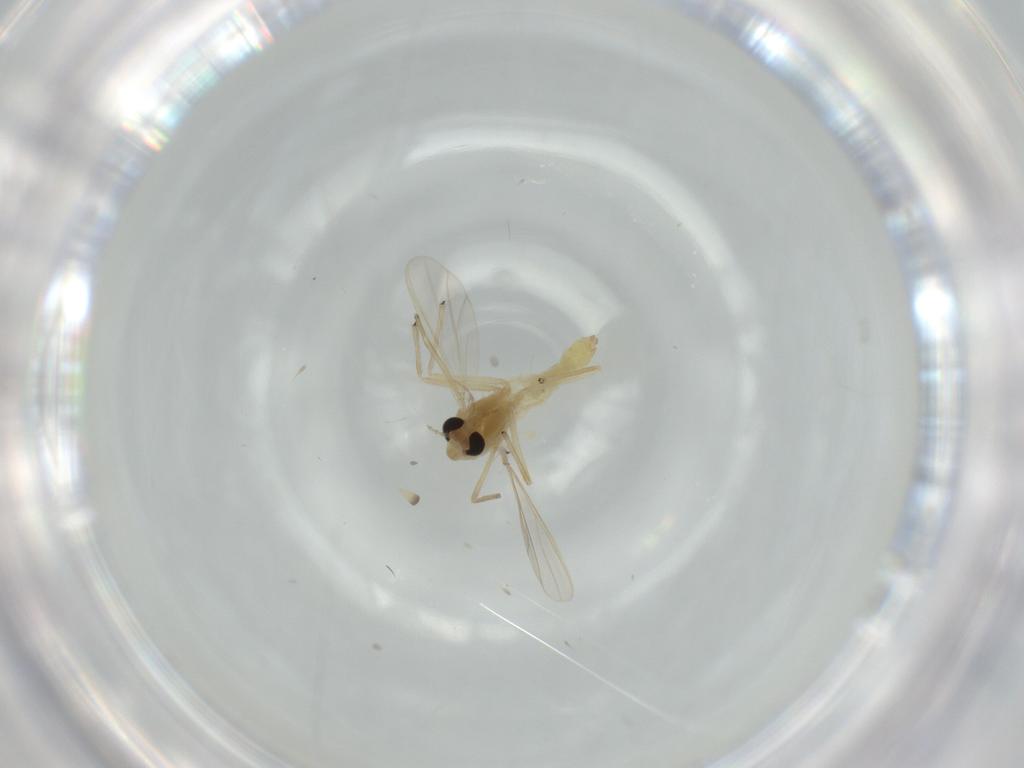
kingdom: Animalia
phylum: Arthropoda
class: Insecta
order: Diptera
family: Chironomidae
